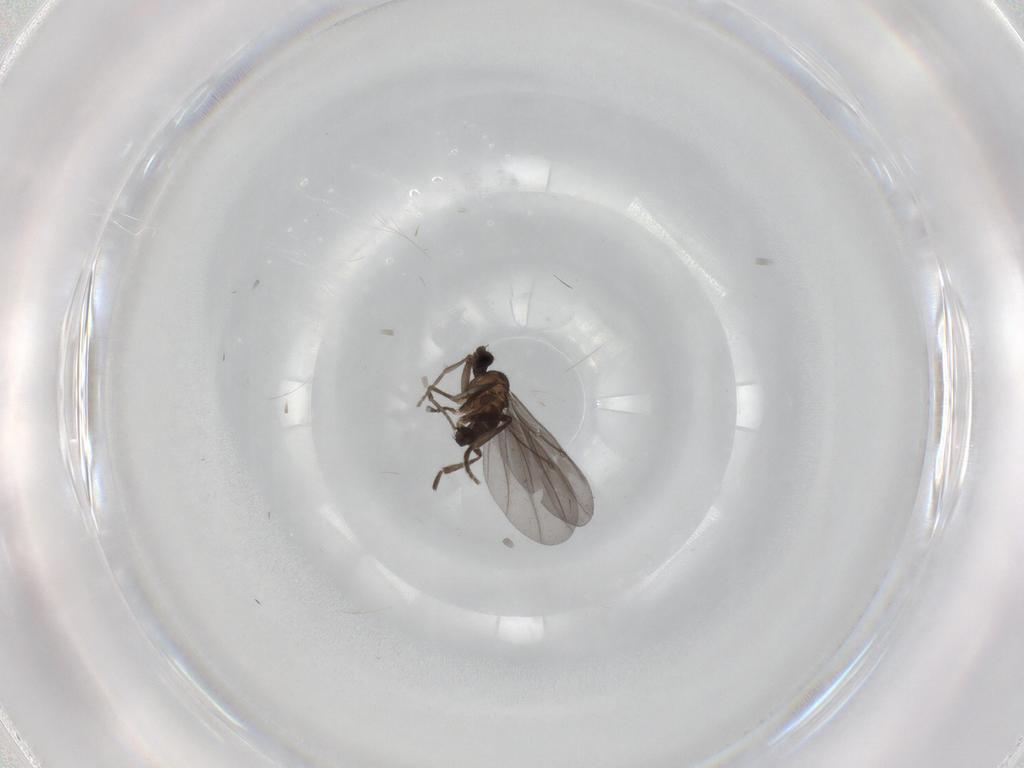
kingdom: Animalia
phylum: Arthropoda
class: Insecta
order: Diptera
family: Phoridae
